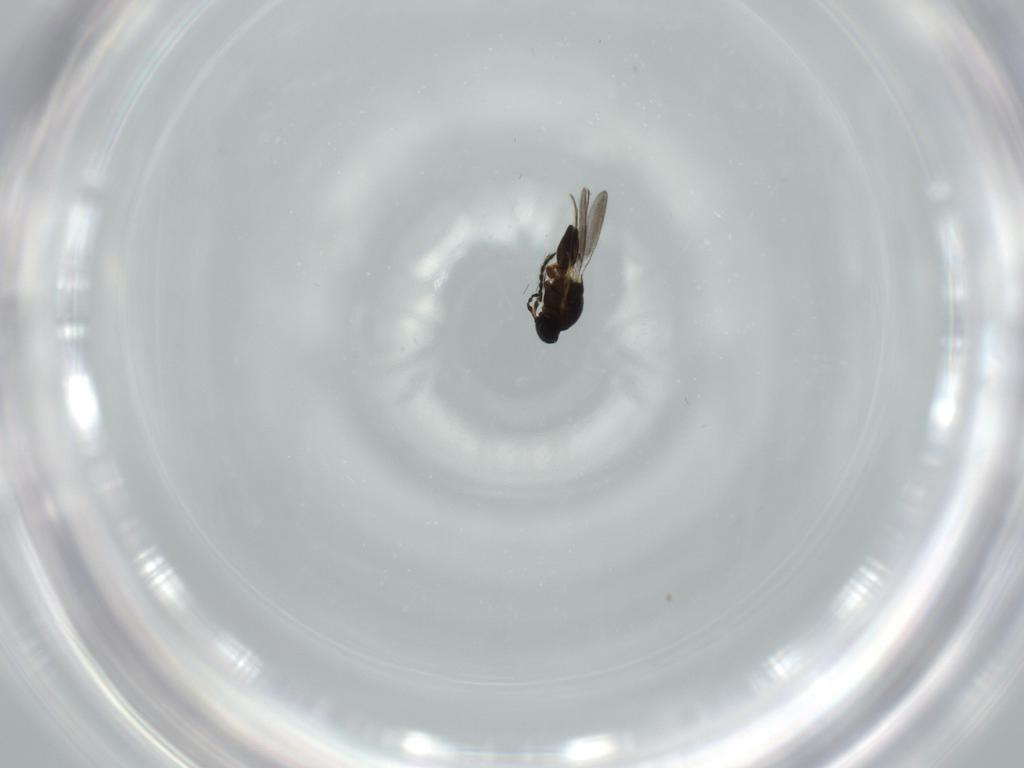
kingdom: Animalia
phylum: Arthropoda
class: Insecta
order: Hymenoptera
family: Platygastridae
